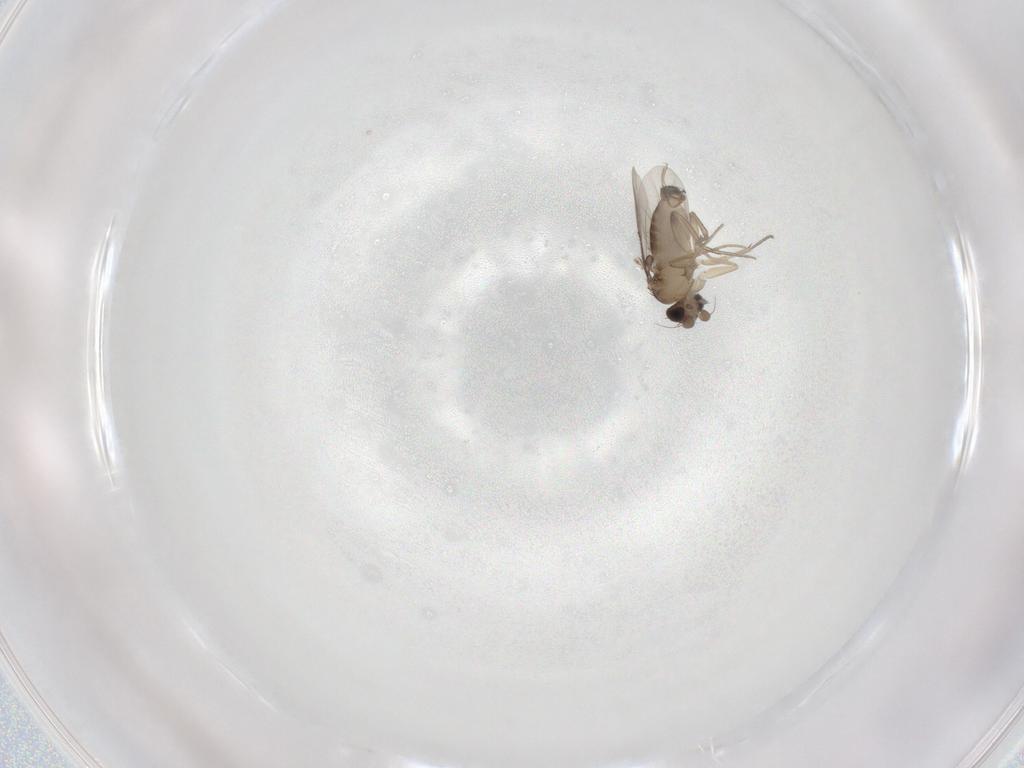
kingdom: Animalia
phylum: Arthropoda
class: Insecta
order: Diptera
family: Phoridae
